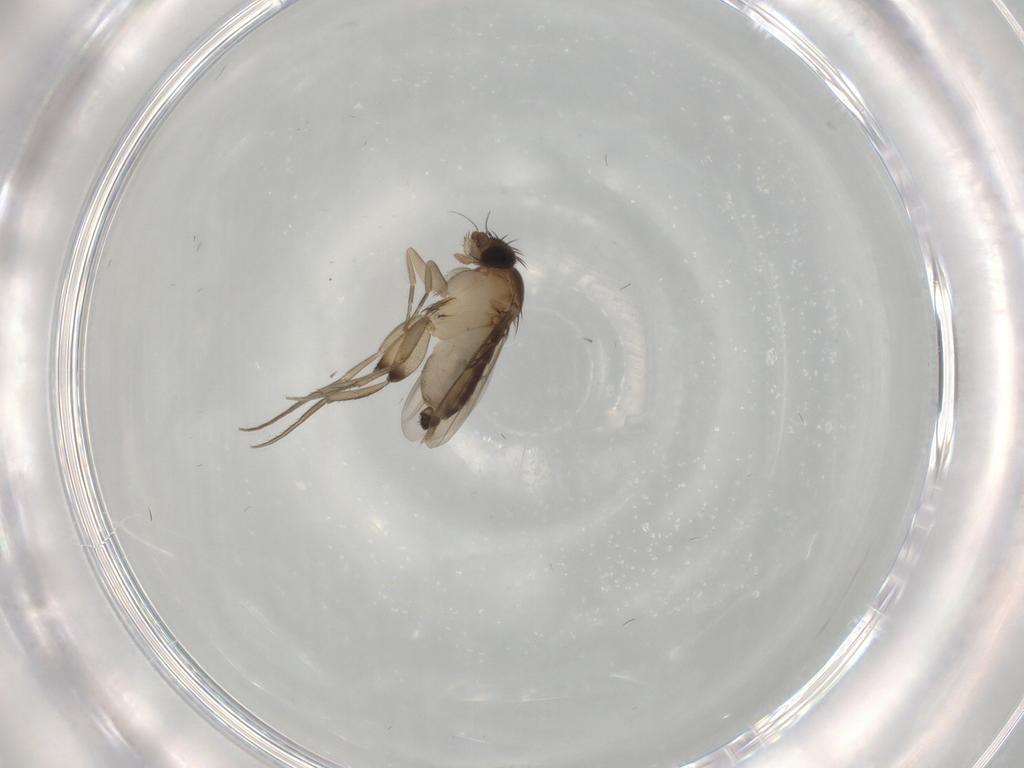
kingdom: Animalia
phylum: Arthropoda
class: Insecta
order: Diptera
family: Phoridae
